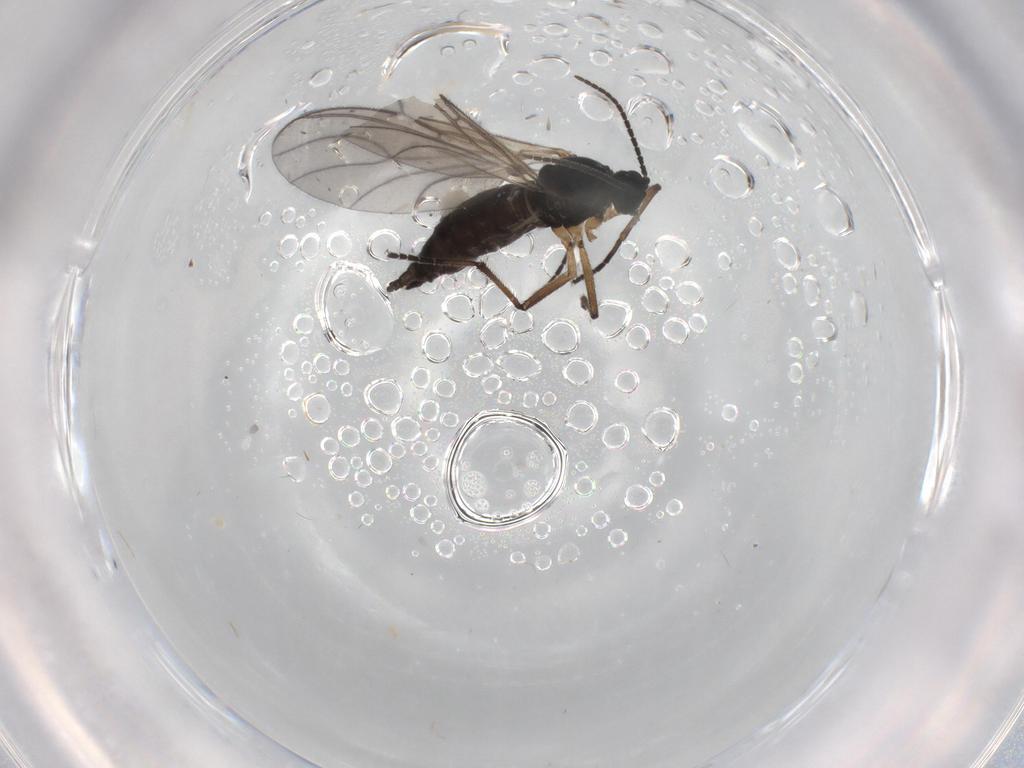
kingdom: Animalia
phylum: Arthropoda
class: Insecta
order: Diptera
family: Sciaridae
